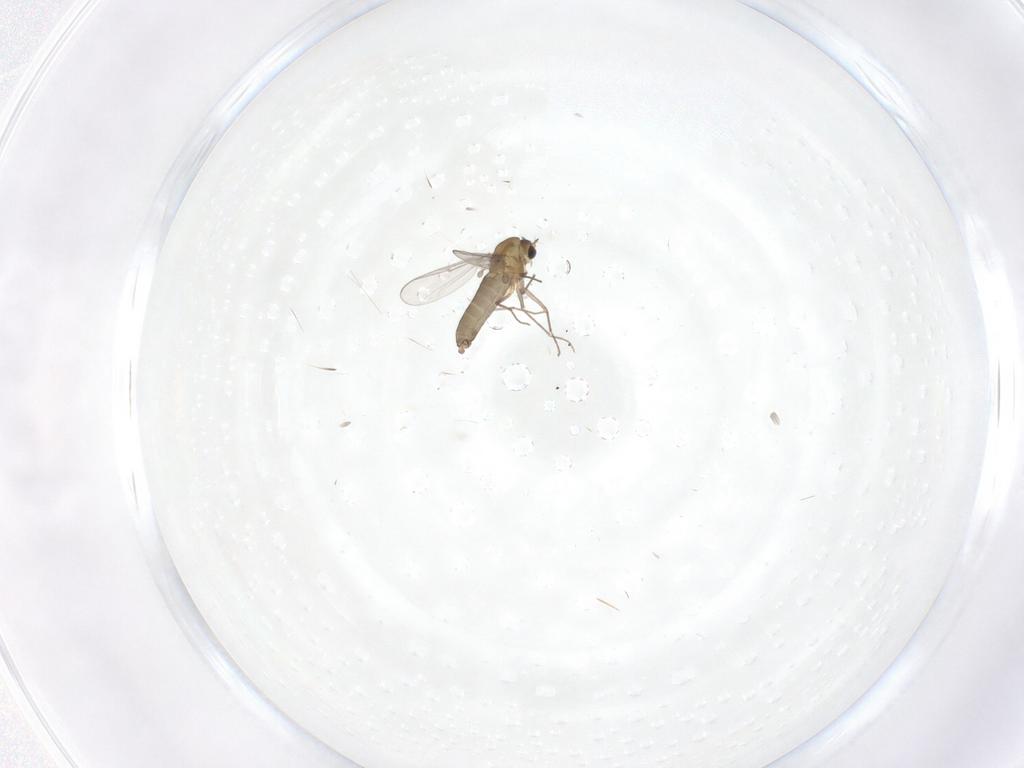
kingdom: Animalia
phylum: Arthropoda
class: Insecta
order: Diptera
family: Chironomidae
